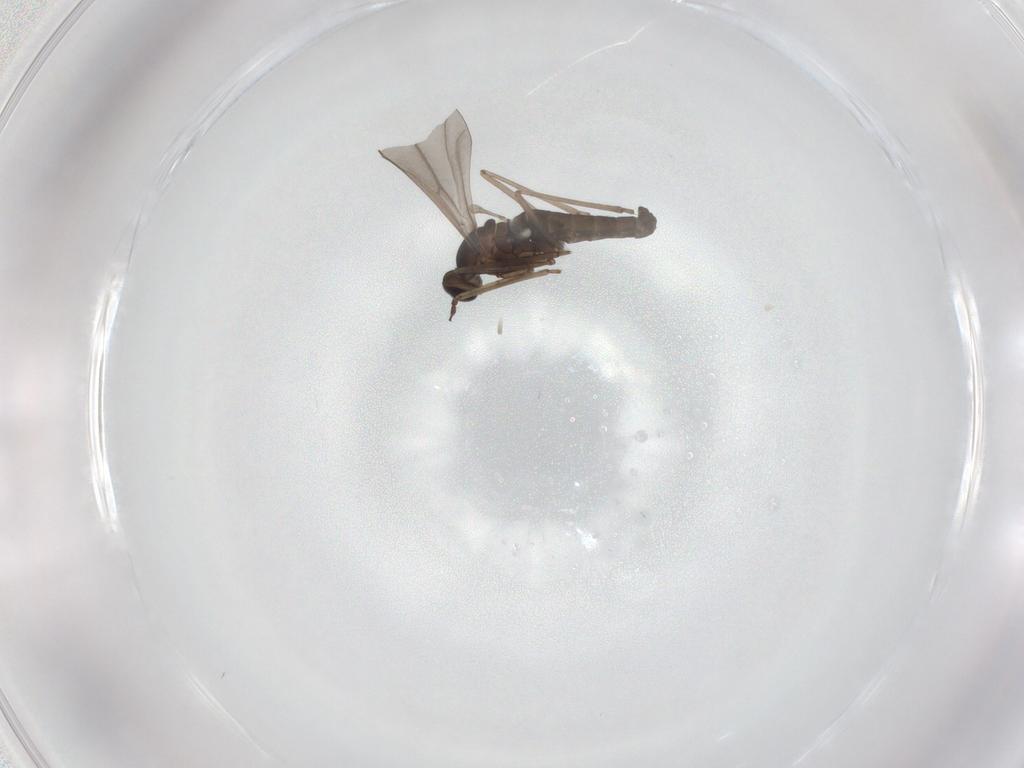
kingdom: Animalia
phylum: Arthropoda
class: Insecta
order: Diptera
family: Cecidomyiidae
